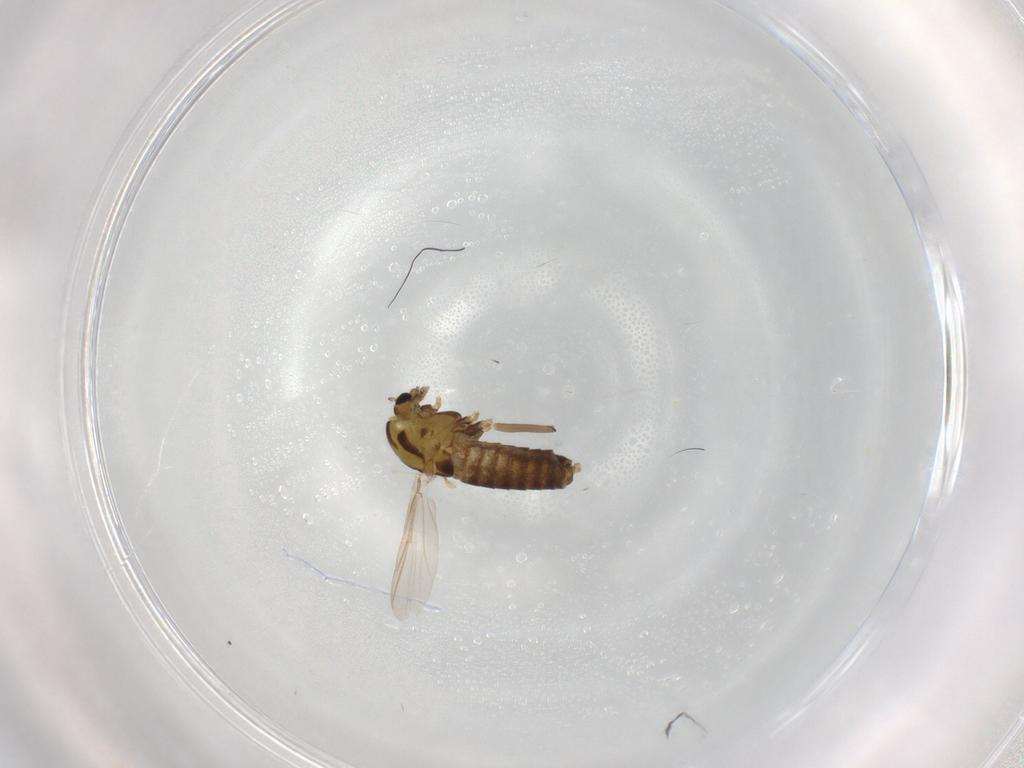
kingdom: Animalia
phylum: Arthropoda
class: Insecta
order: Diptera
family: Chironomidae
